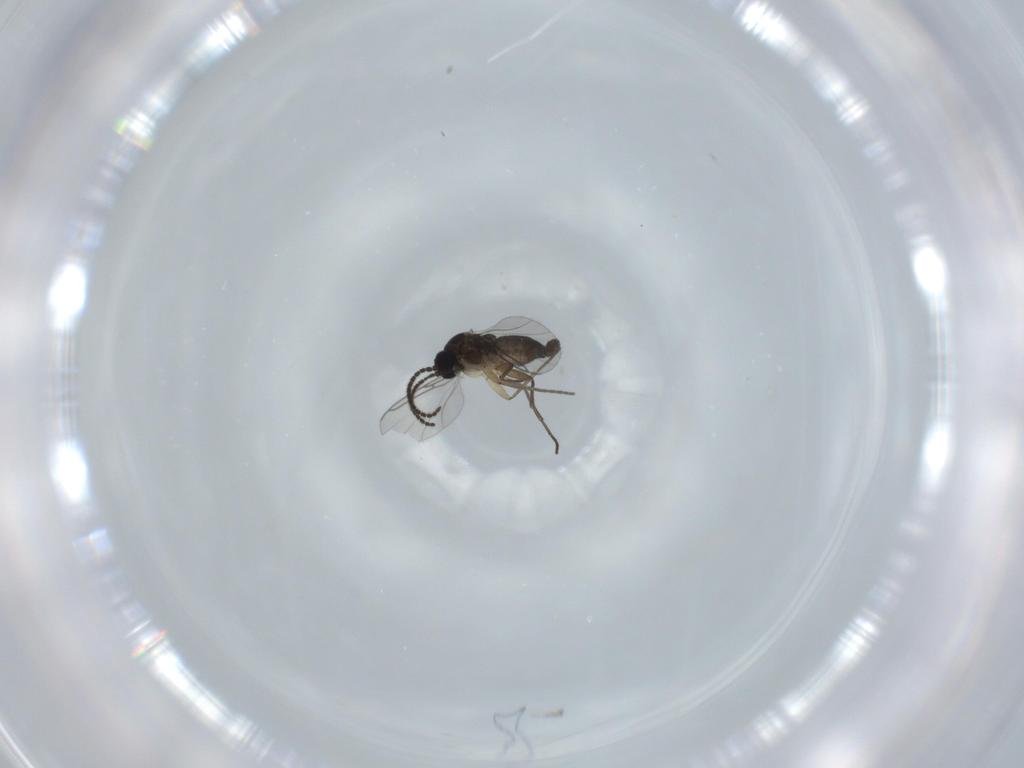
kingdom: Animalia
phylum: Arthropoda
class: Insecta
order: Diptera
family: Sciaridae
